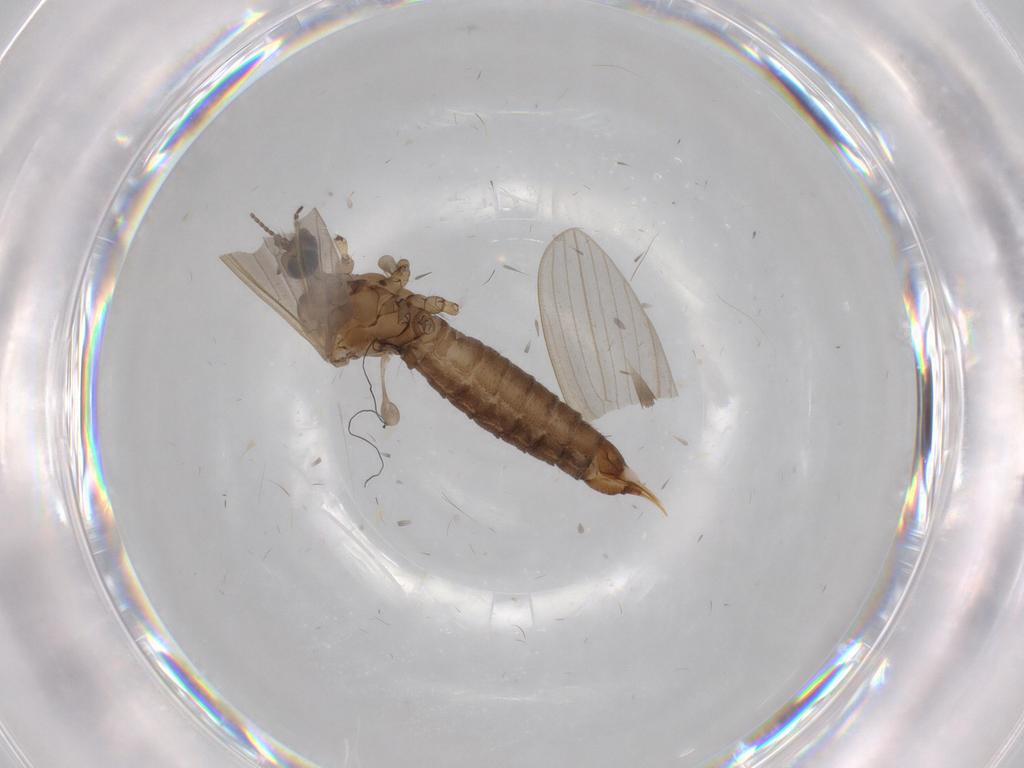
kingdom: Animalia
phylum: Arthropoda
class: Insecta
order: Diptera
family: Limoniidae
